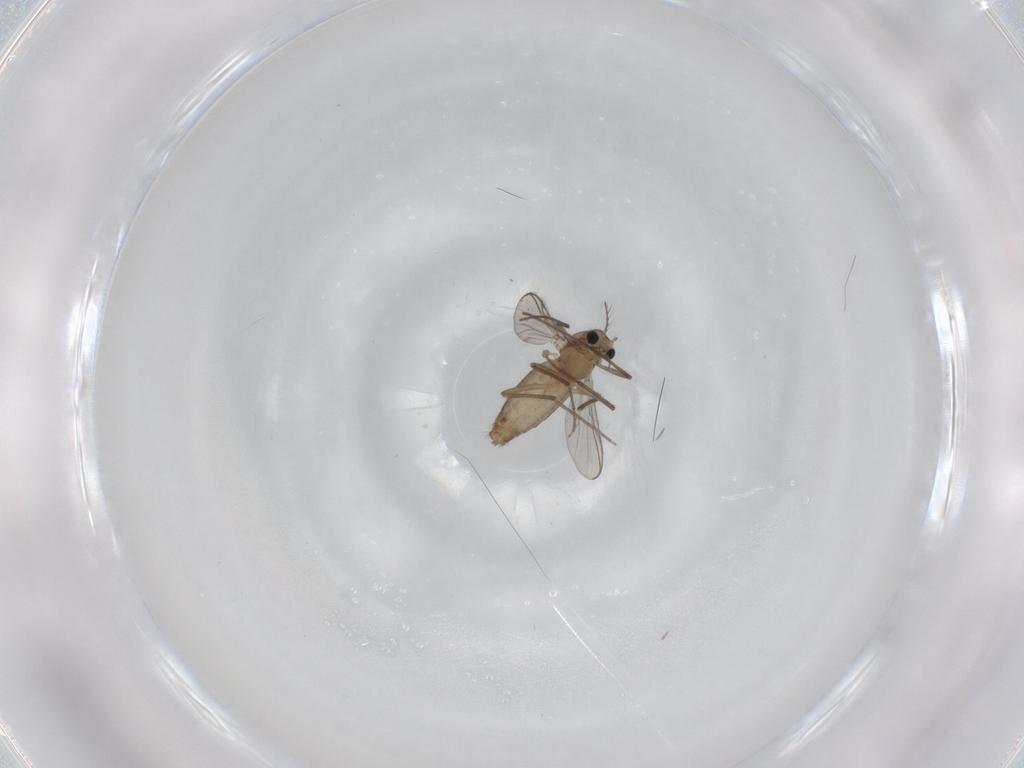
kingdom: Animalia
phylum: Arthropoda
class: Insecta
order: Diptera
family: Chironomidae
